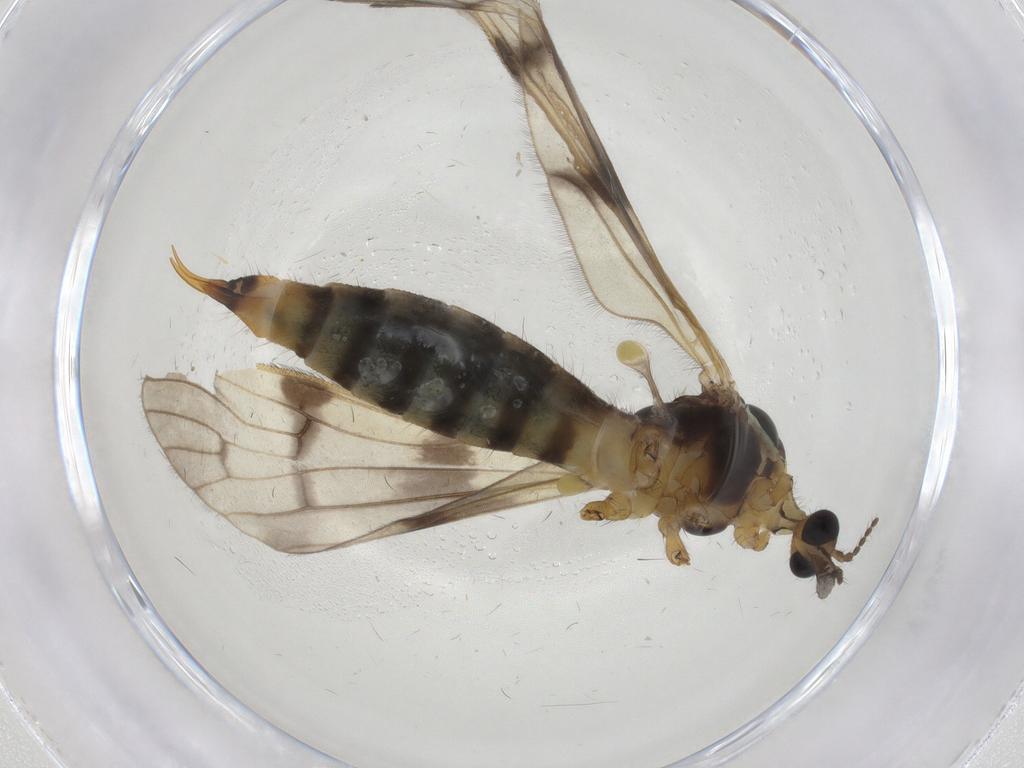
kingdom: Animalia
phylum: Arthropoda
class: Insecta
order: Diptera
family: Limoniidae
